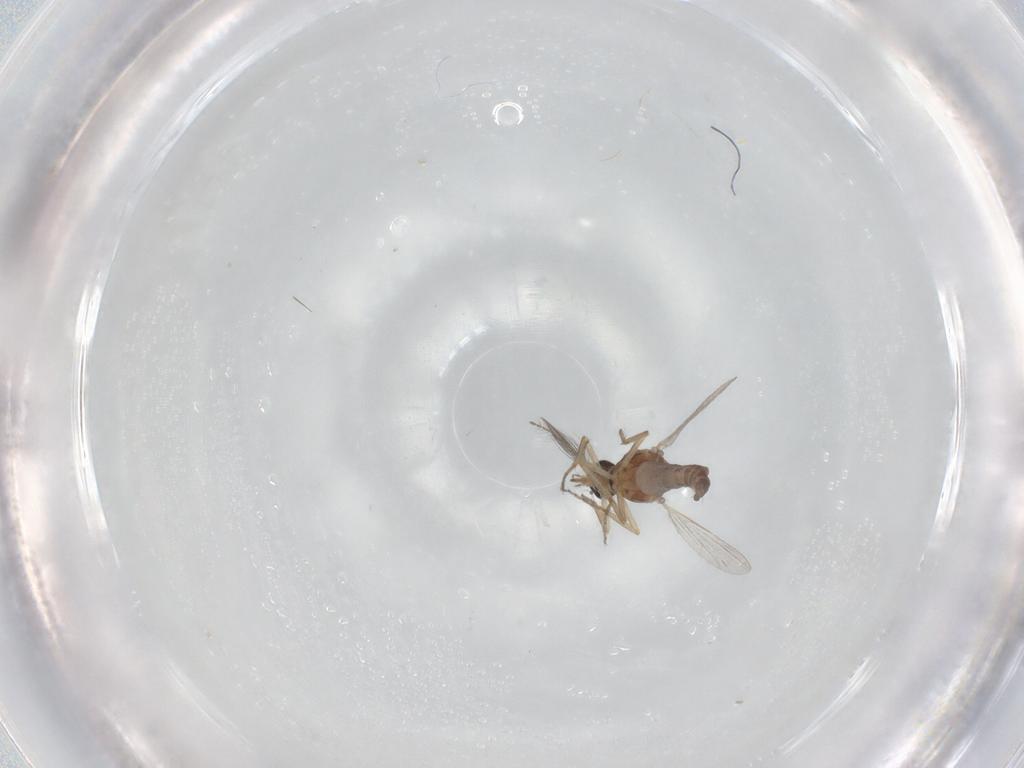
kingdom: Animalia
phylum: Arthropoda
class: Insecta
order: Diptera
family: Ceratopogonidae
